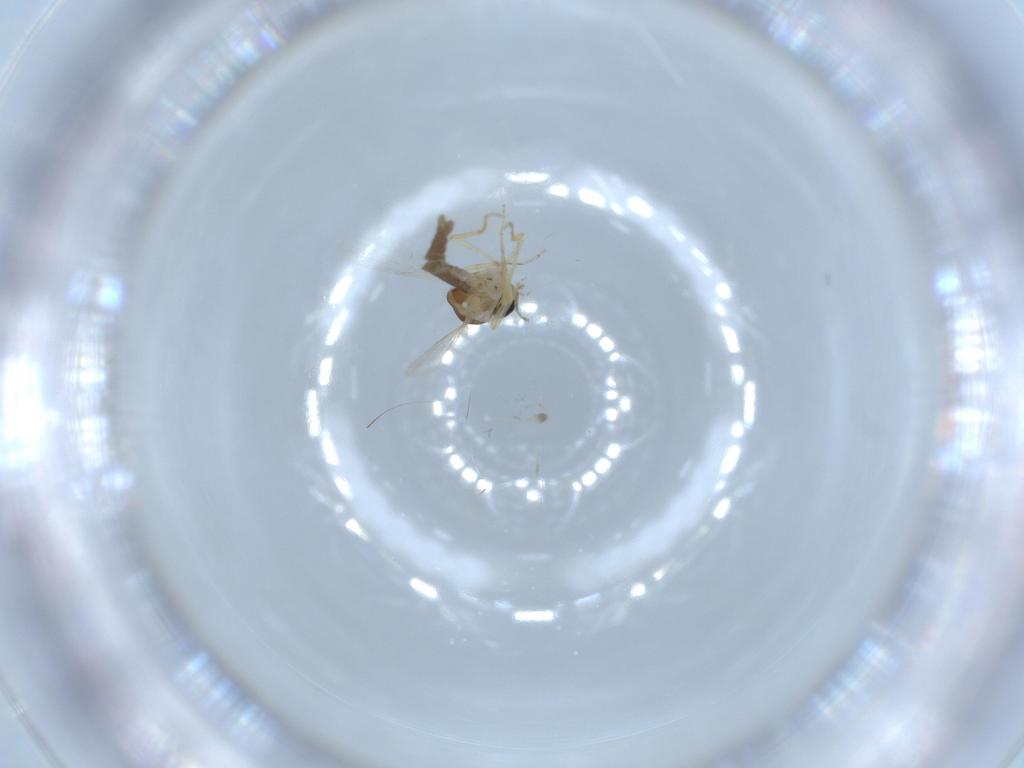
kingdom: Animalia
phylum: Arthropoda
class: Insecta
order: Diptera
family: Ceratopogonidae
